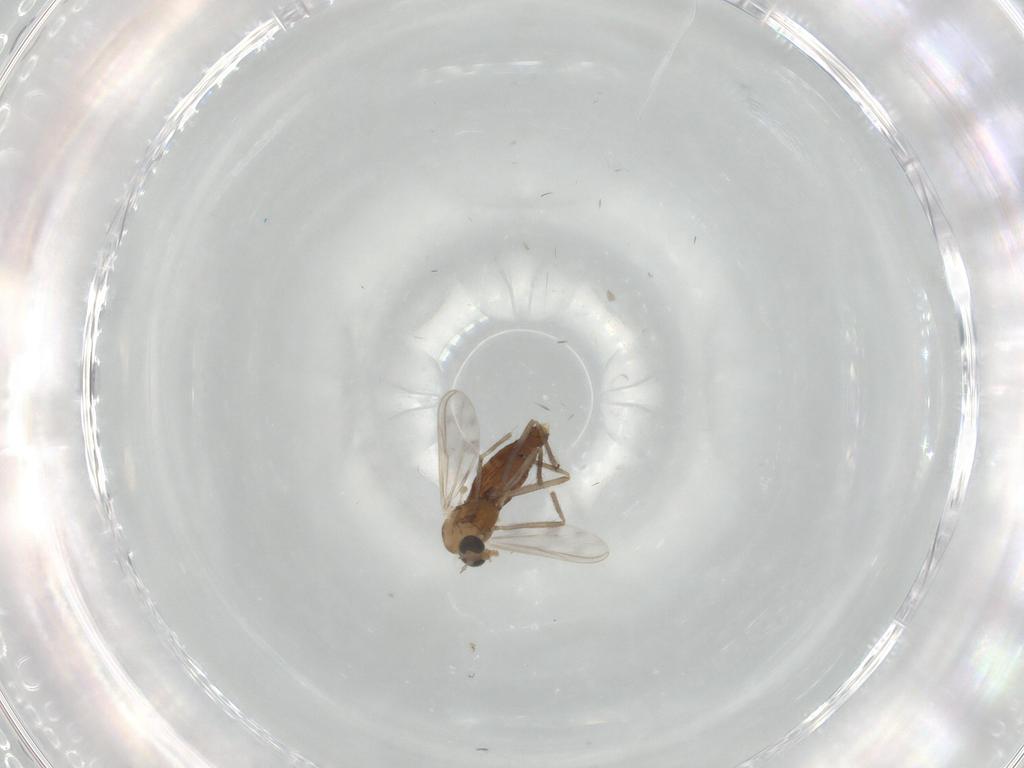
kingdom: Animalia
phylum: Arthropoda
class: Insecta
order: Diptera
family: Chironomidae
